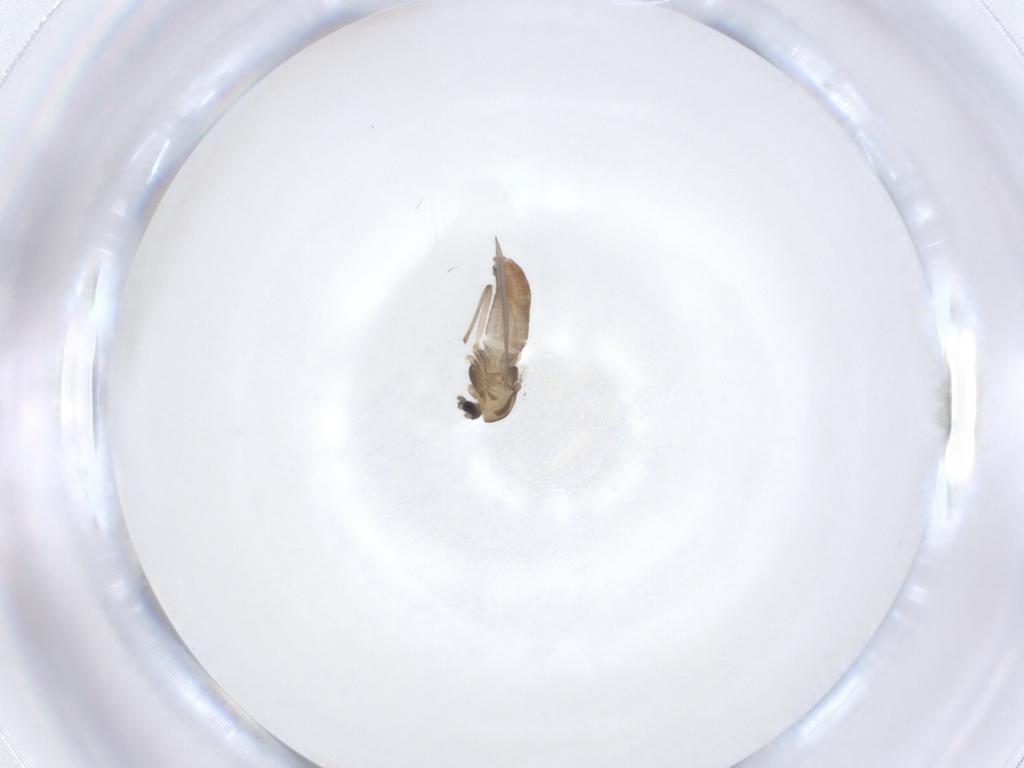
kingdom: Animalia
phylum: Arthropoda
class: Insecta
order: Diptera
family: Chironomidae
